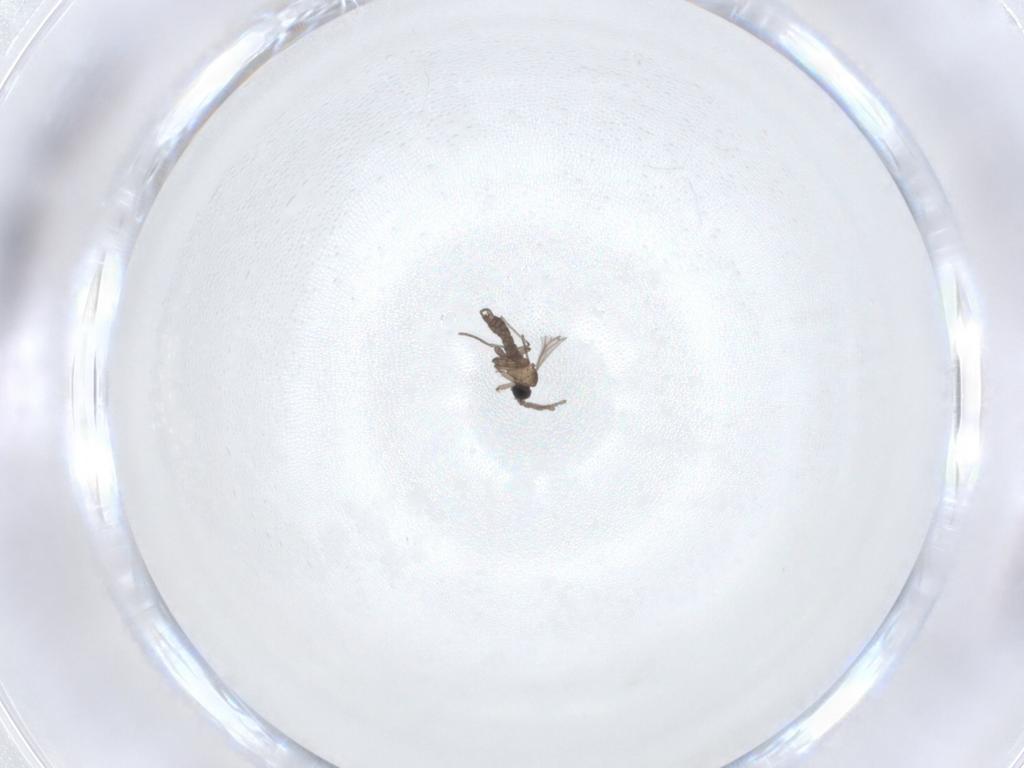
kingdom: Animalia
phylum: Arthropoda
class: Insecta
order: Diptera
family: Sciaridae
